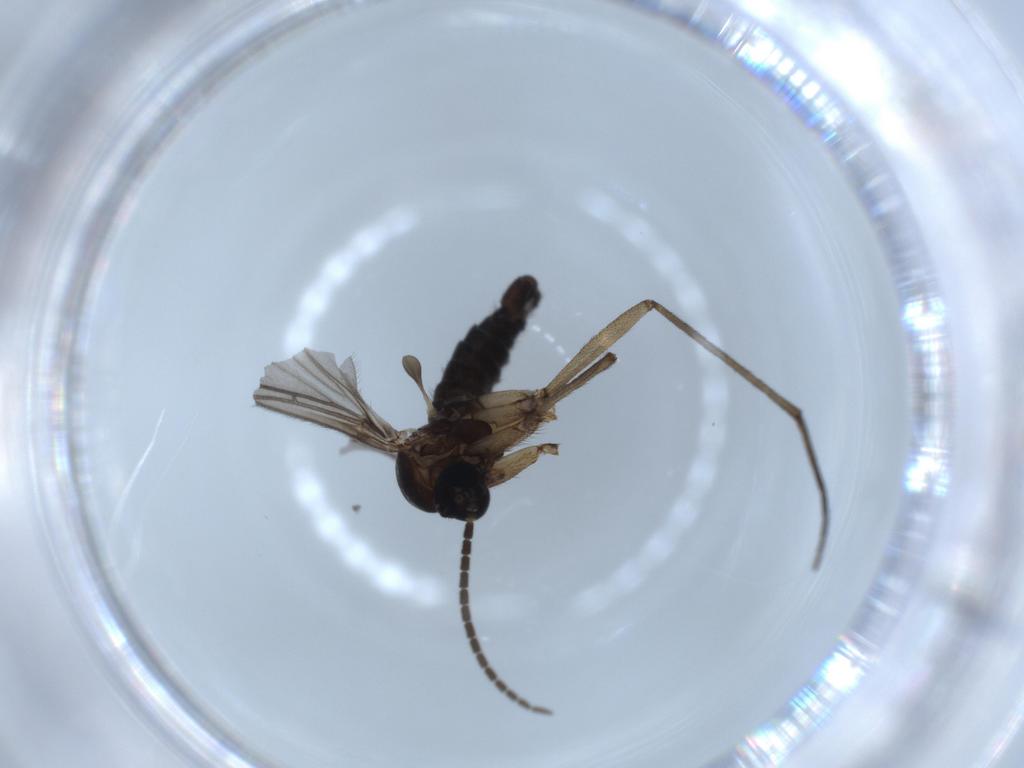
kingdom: Animalia
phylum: Arthropoda
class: Insecta
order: Diptera
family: Sciaridae
